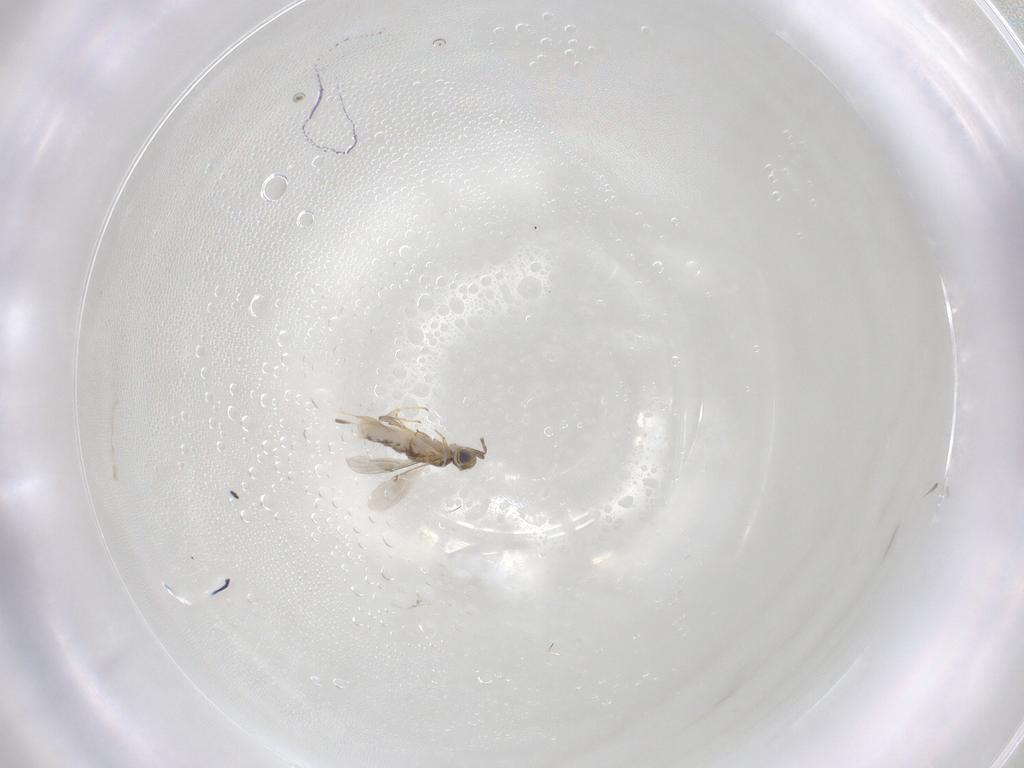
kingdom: Animalia
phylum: Arthropoda
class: Insecta
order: Hymenoptera
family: Encyrtidae
